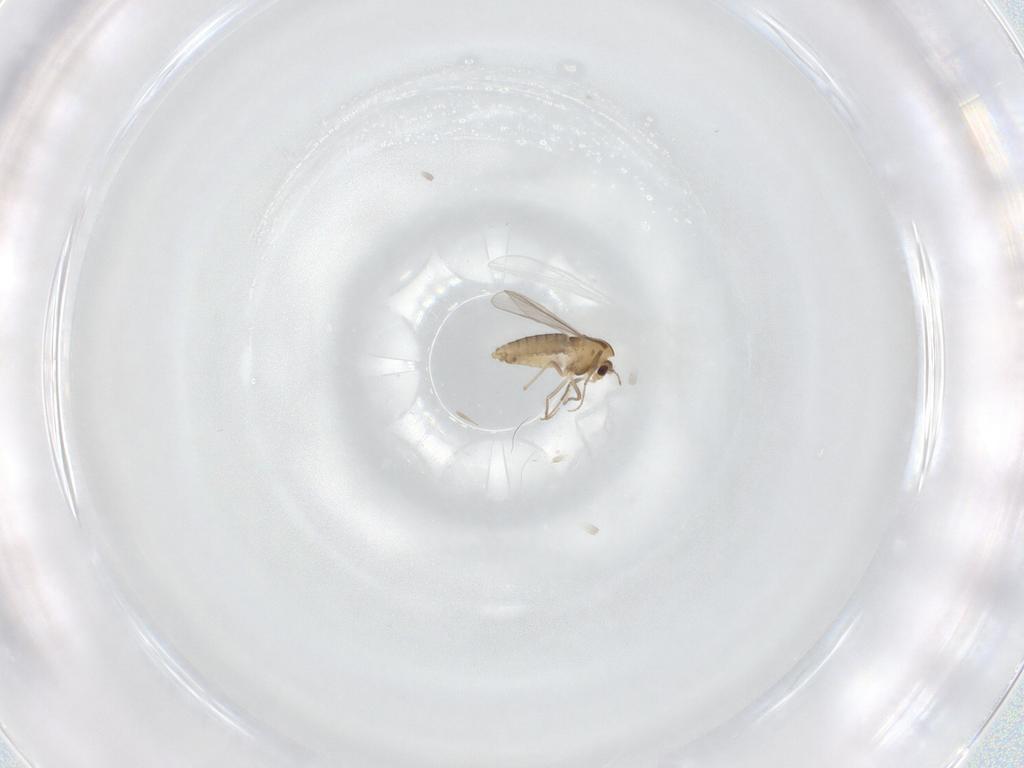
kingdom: Animalia
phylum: Arthropoda
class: Insecta
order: Diptera
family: Chironomidae
